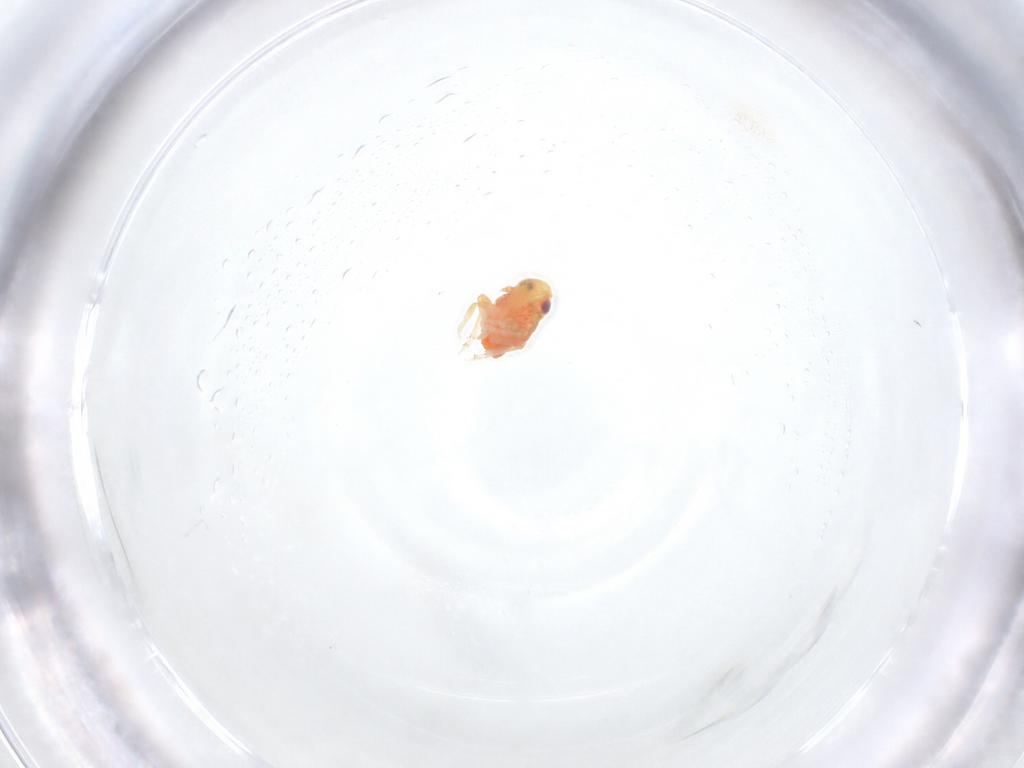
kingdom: Animalia
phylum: Arthropoda
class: Insecta
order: Hemiptera
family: Issidae
